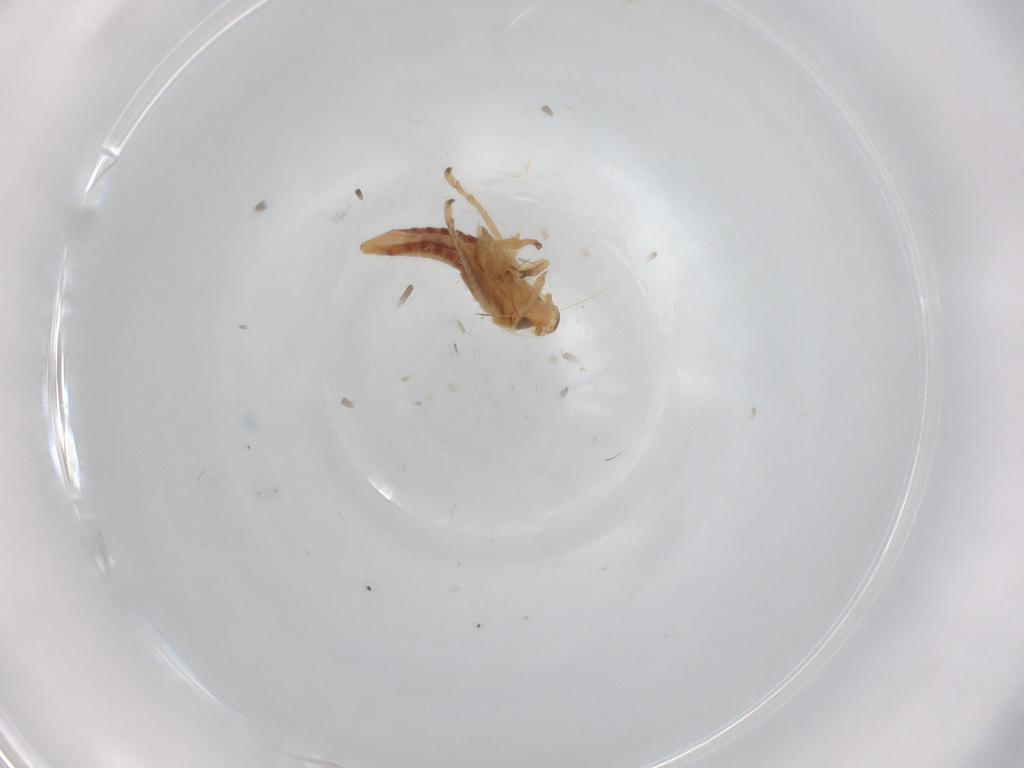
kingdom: Animalia
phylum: Arthropoda
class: Insecta
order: Hemiptera
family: Cicadellidae
